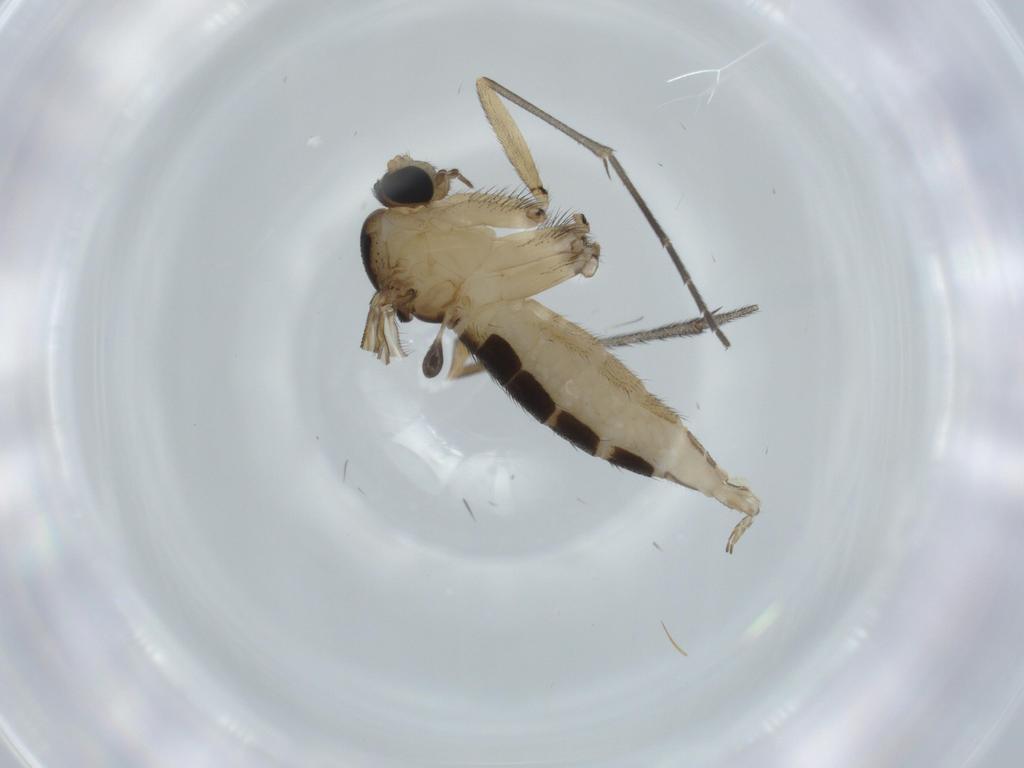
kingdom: Animalia
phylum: Arthropoda
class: Insecta
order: Diptera
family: Sciaridae
